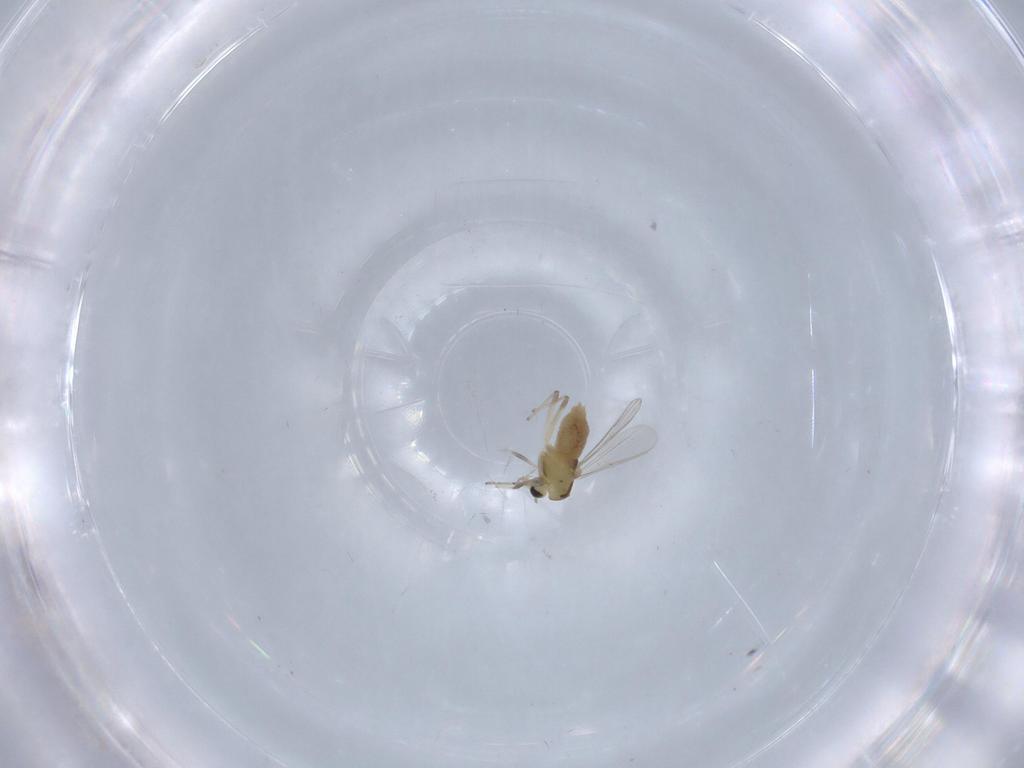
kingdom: Animalia
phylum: Arthropoda
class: Insecta
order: Diptera
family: Chironomidae
